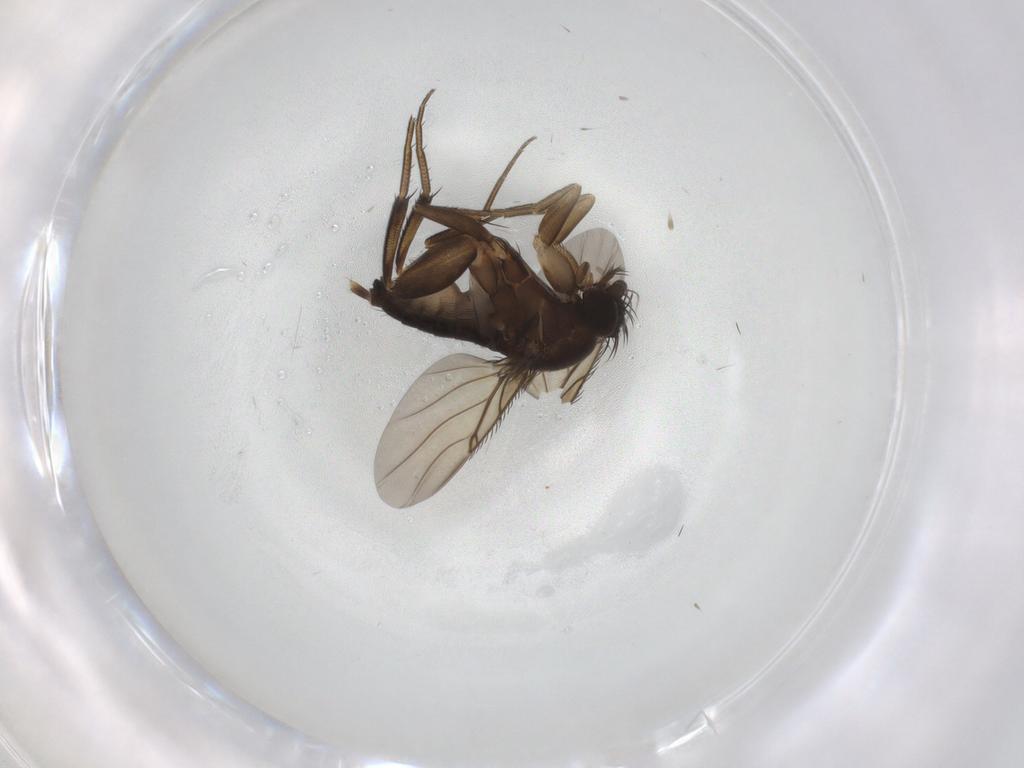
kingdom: Animalia
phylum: Arthropoda
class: Insecta
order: Diptera
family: Phoridae
